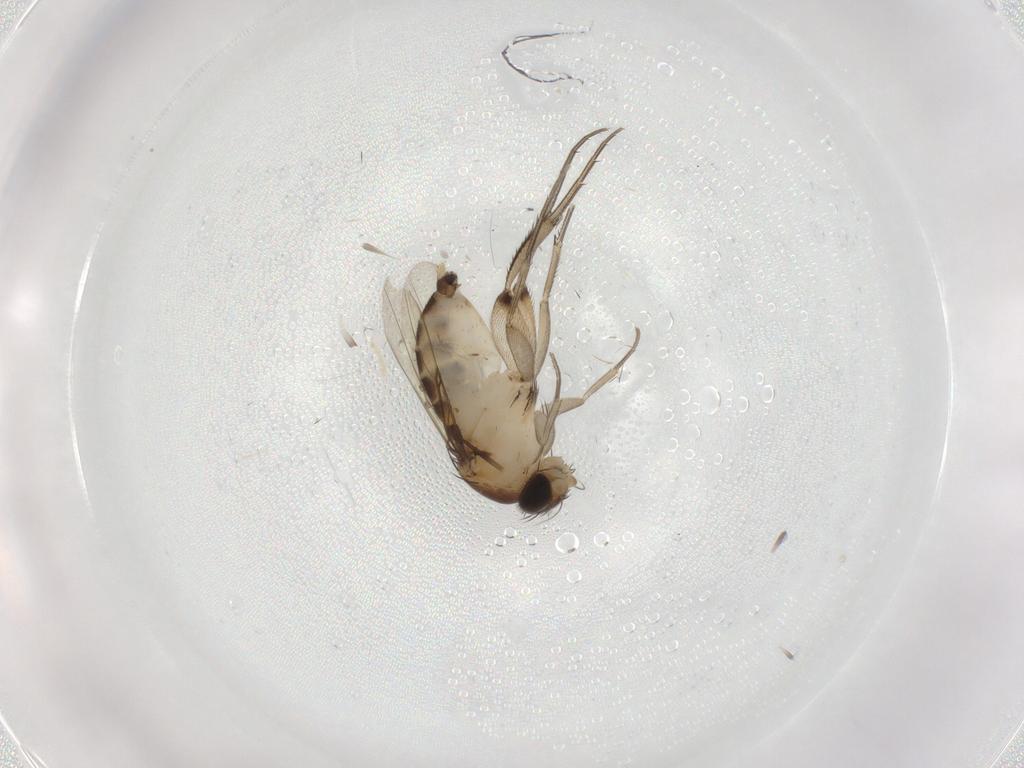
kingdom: Animalia
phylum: Arthropoda
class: Insecta
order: Diptera
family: Phoridae
